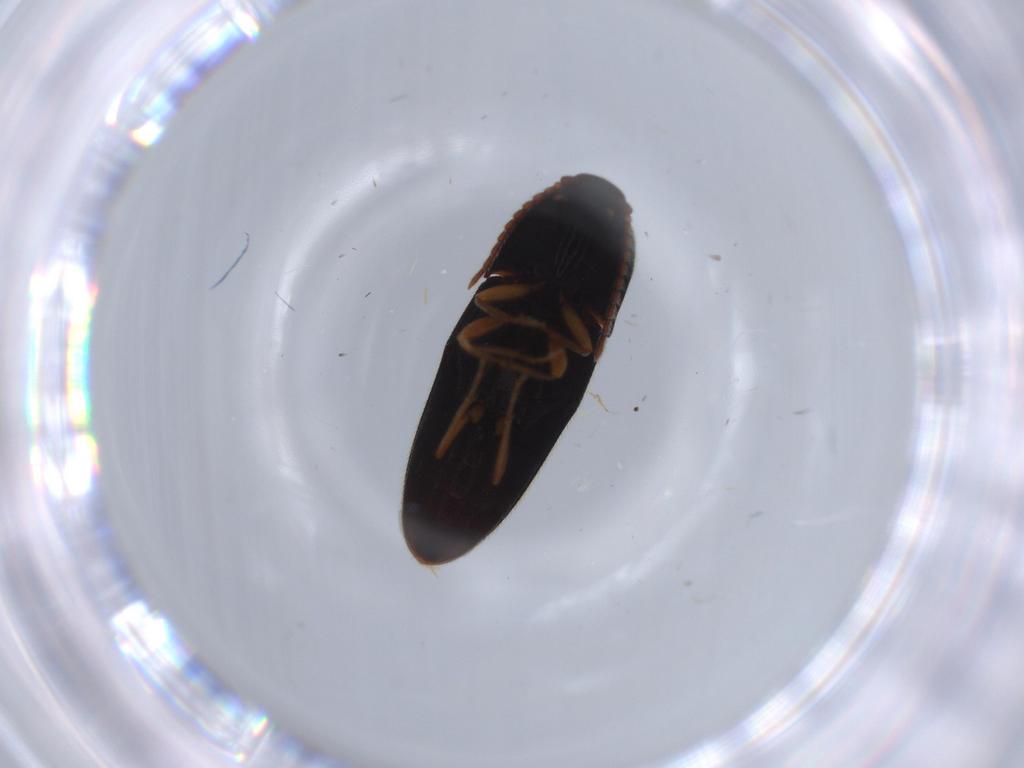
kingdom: Animalia
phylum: Arthropoda
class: Insecta
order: Coleoptera
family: Elateridae
